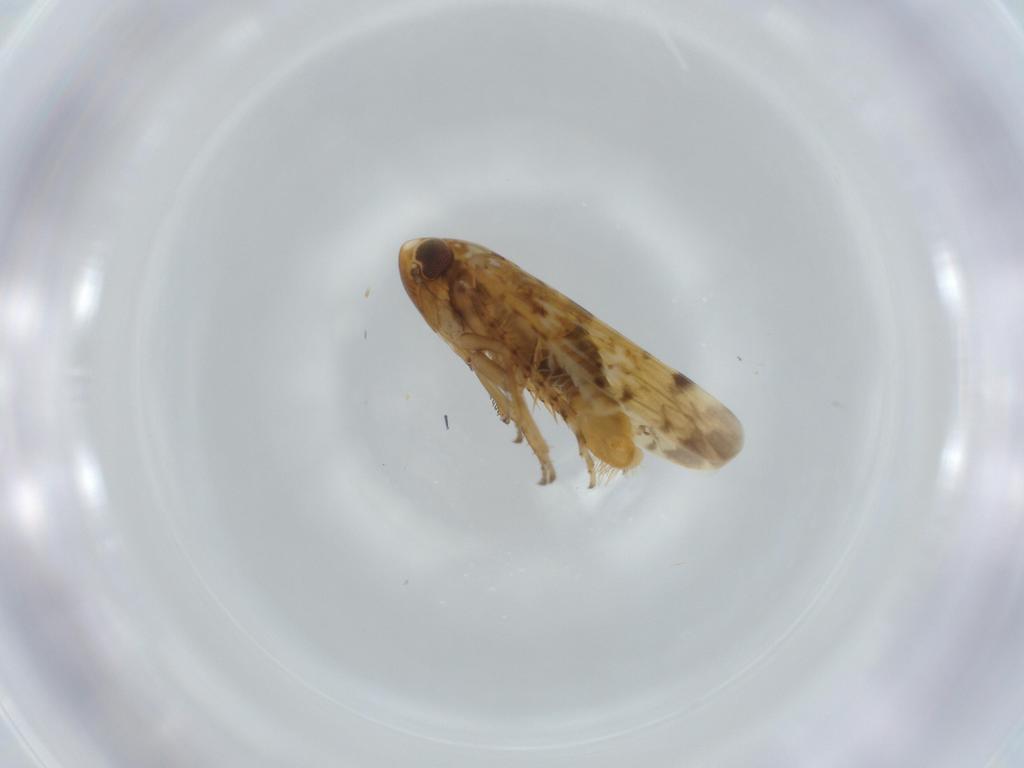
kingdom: Animalia
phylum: Arthropoda
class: Insecta
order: Hemiptera
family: Cicadellidae
